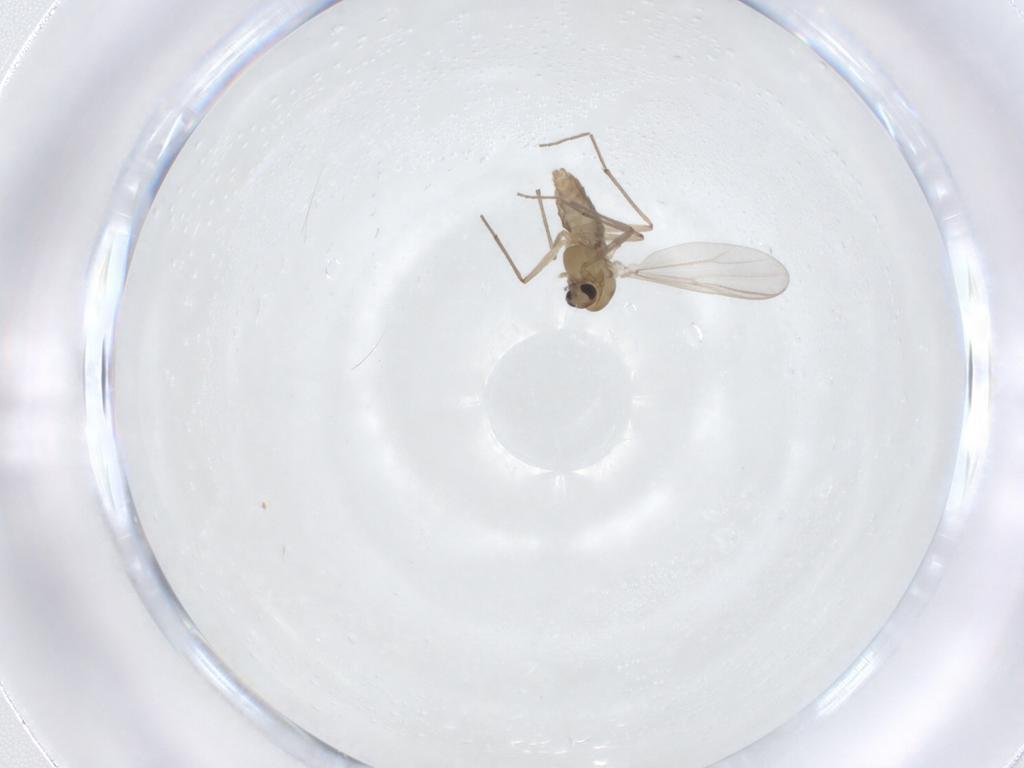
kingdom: Animalia
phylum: Arthropoda
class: Insecta
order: Diptera
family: Chironomidae
